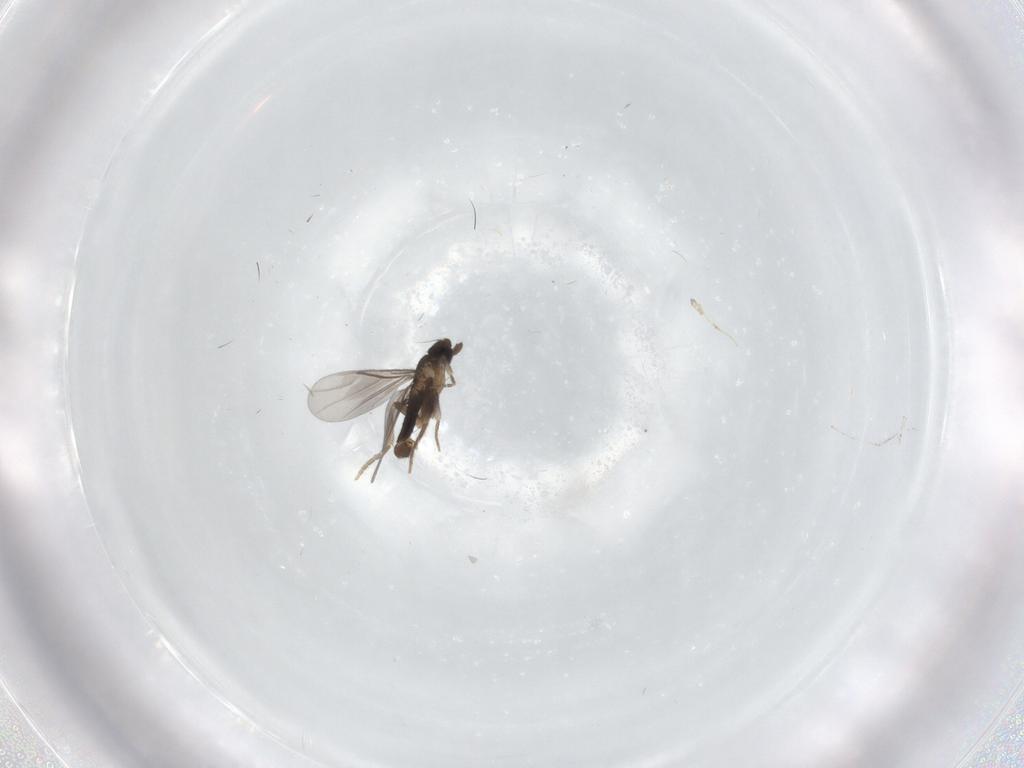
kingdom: Animalia
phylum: Arthropoda
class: Insecta
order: Diptera
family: Cecidomyiidae
